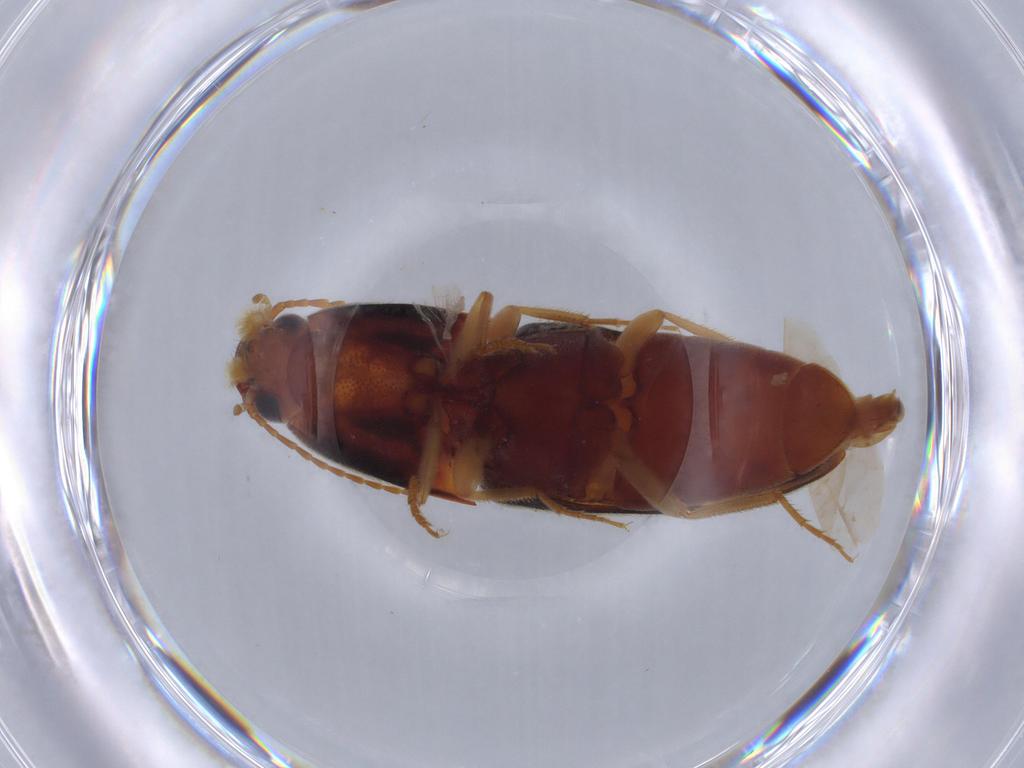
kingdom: Animalia
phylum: Arthropoda
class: Insecta
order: Coleoptera
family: Elateridae
